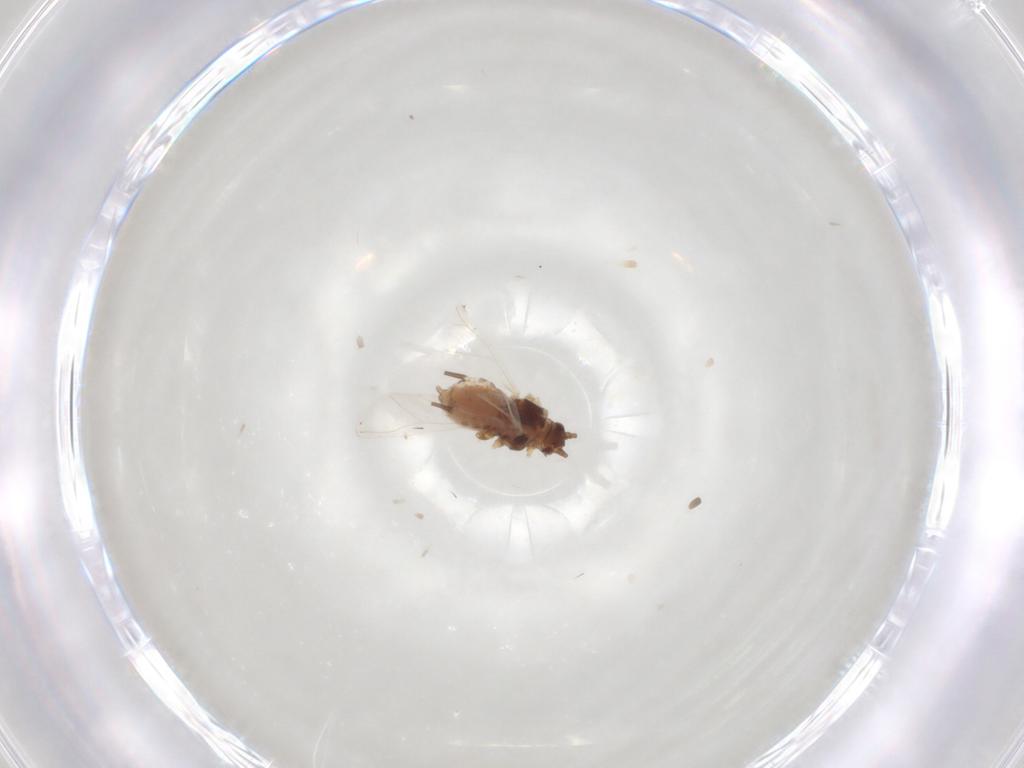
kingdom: Animalia
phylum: Arthropoda
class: Insecta
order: Hemiptera
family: Aphididae
